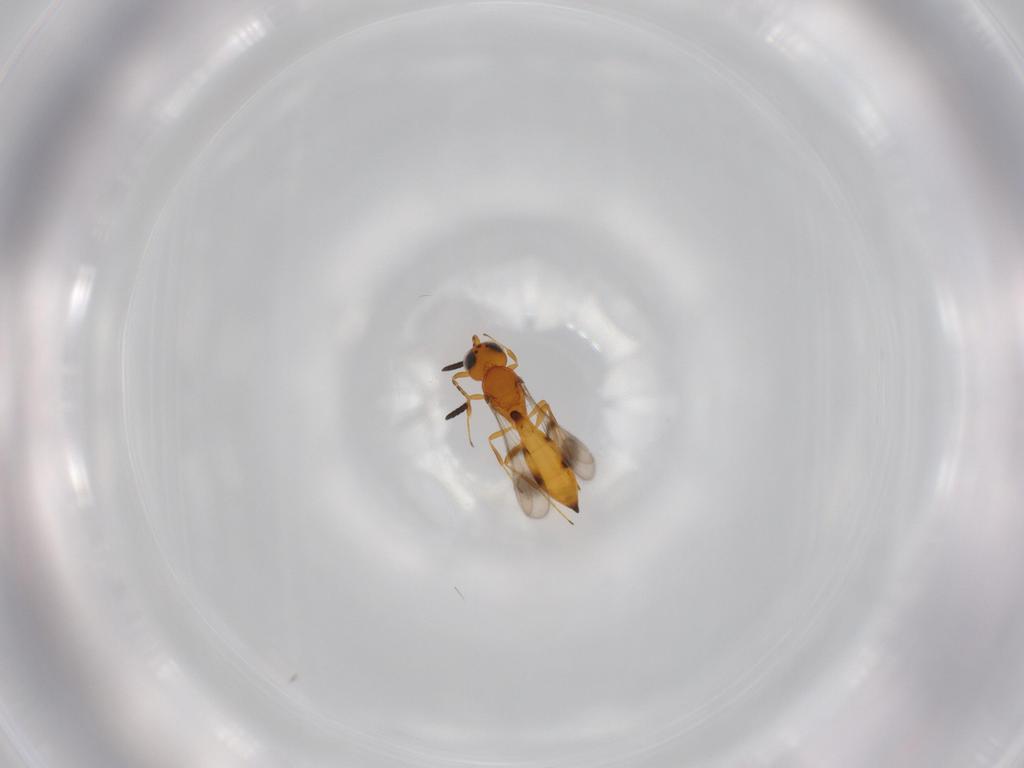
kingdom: Animalia
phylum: Arthropoda
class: Insecta
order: Hymenoptera
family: Scelionidae
